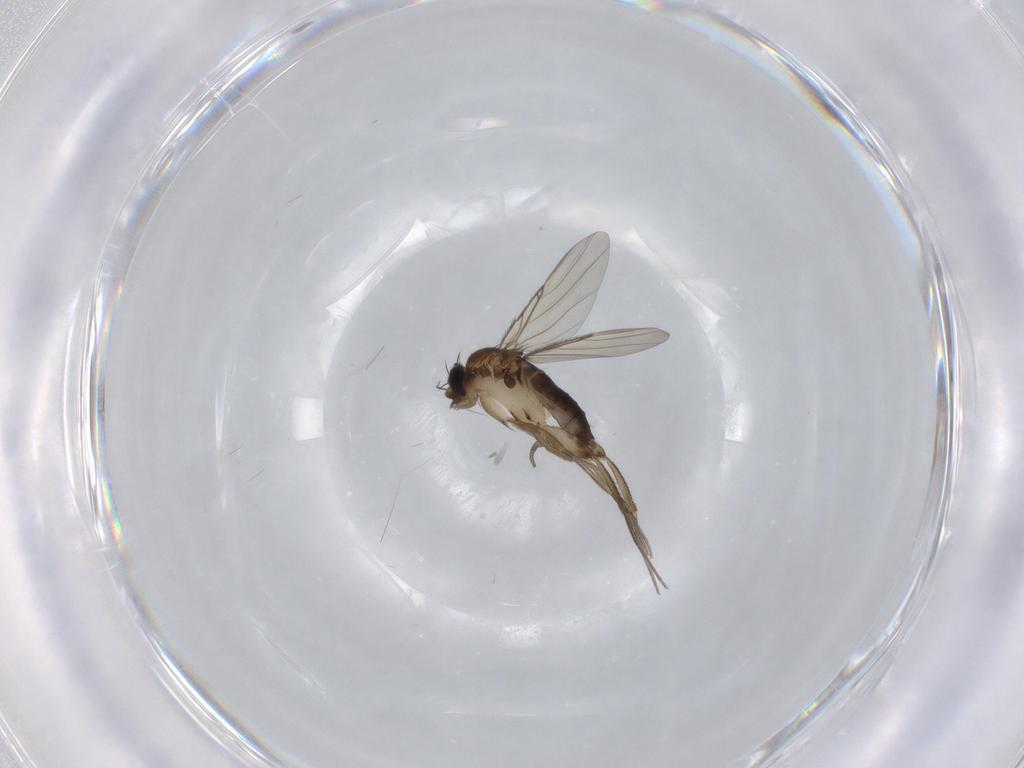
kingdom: Animalia
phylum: Arthropoda
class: Insecta
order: Diptera
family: Phoridae
